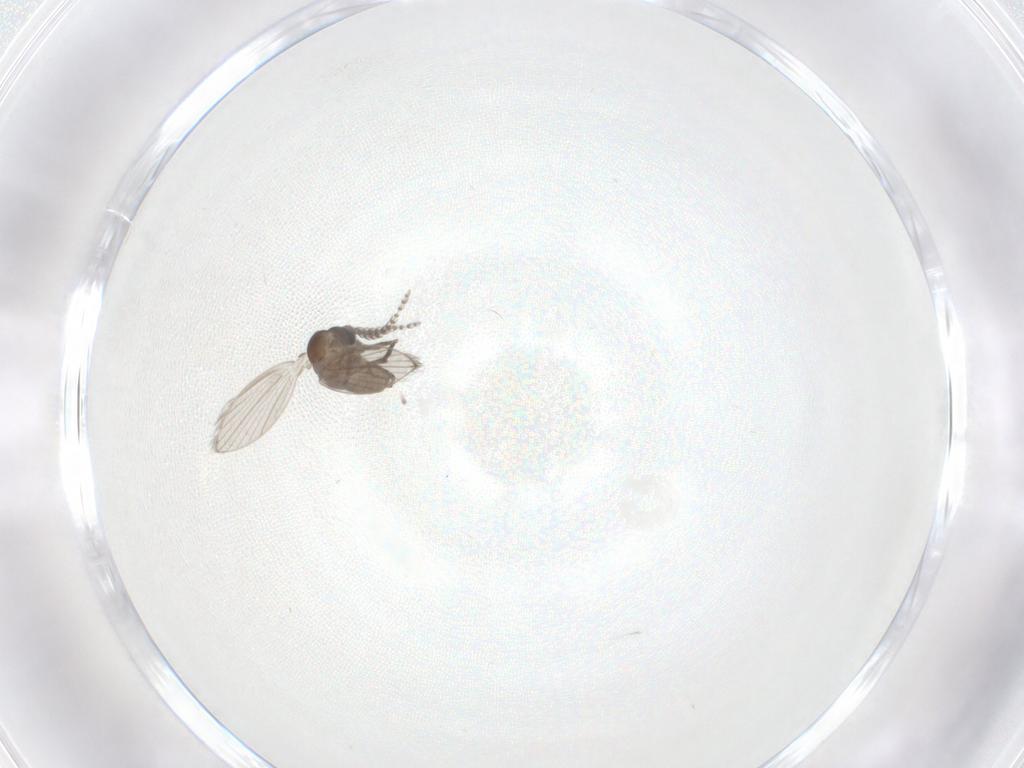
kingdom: Animalia
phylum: Arthropoda
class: Insecta
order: Diptera
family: Psychodidae
